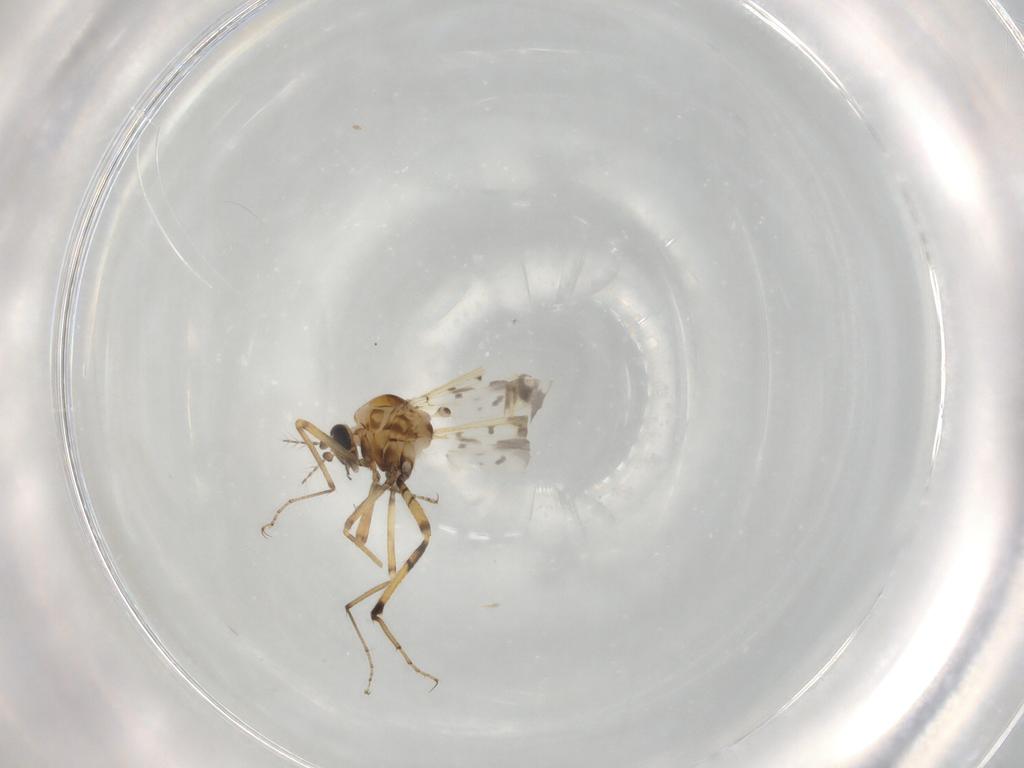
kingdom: Animalia
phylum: Arthropoda
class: Insecta
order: Diptera
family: Ceratopogonidae
